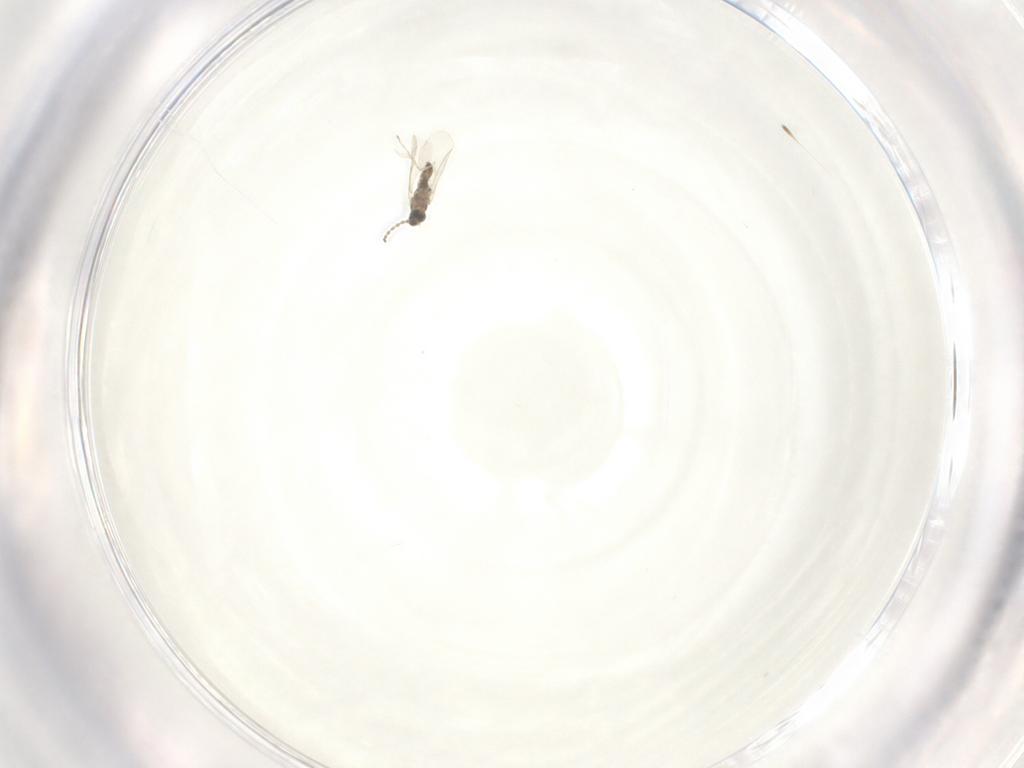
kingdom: Animalia
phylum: Arthropoda
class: Insecta
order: Diptera
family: Cecidomyiidae
